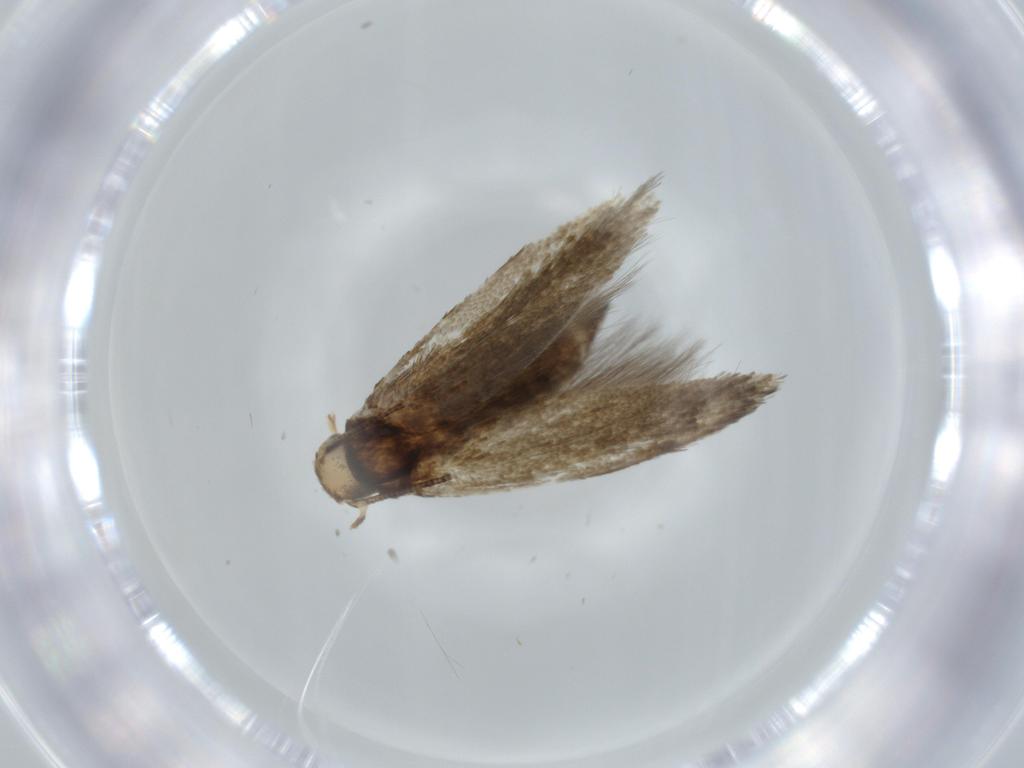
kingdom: Animalia
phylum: Arthropoda
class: Insecta
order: Lepidoptera
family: Tineidae
